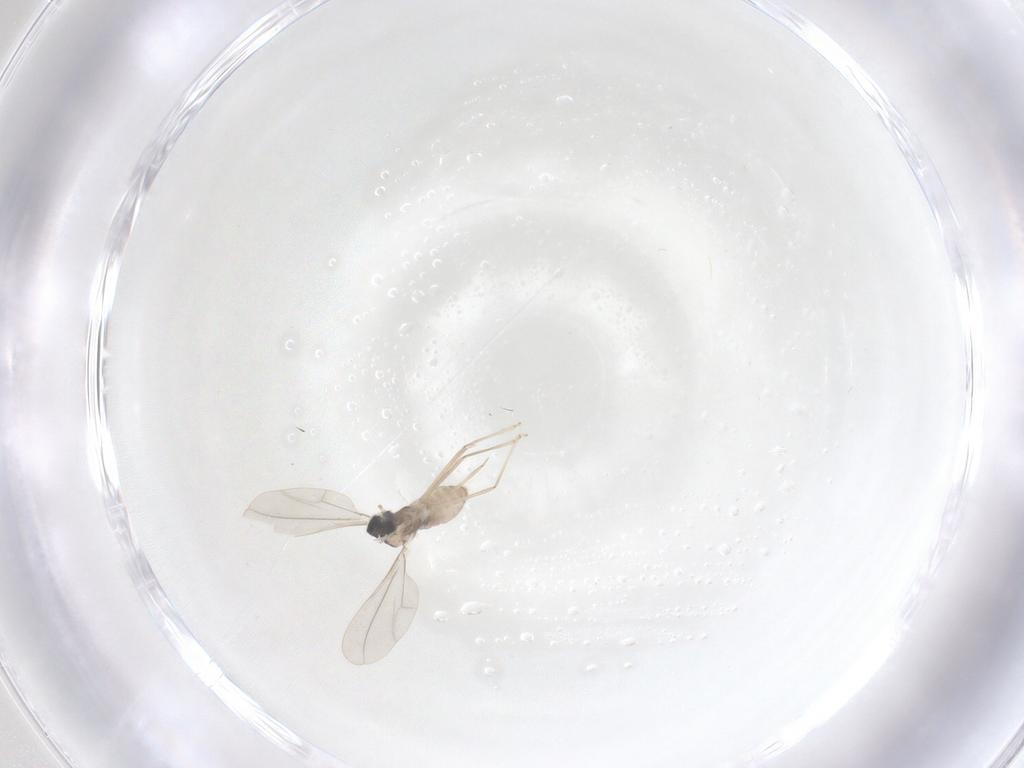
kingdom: Animalia
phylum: Arthropoda
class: Insecta
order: Diptera
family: Cecidomyiidae
